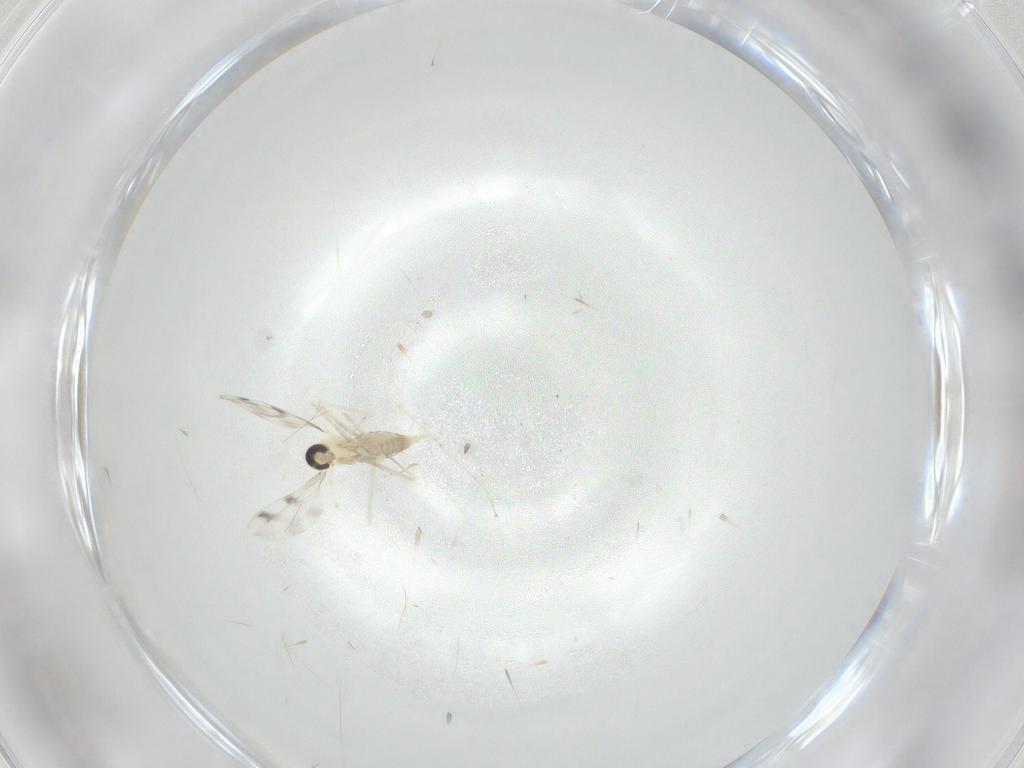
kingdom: Animalia
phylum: Arthropoda
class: Insecta
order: Diptera
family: Cecidomyiidae
